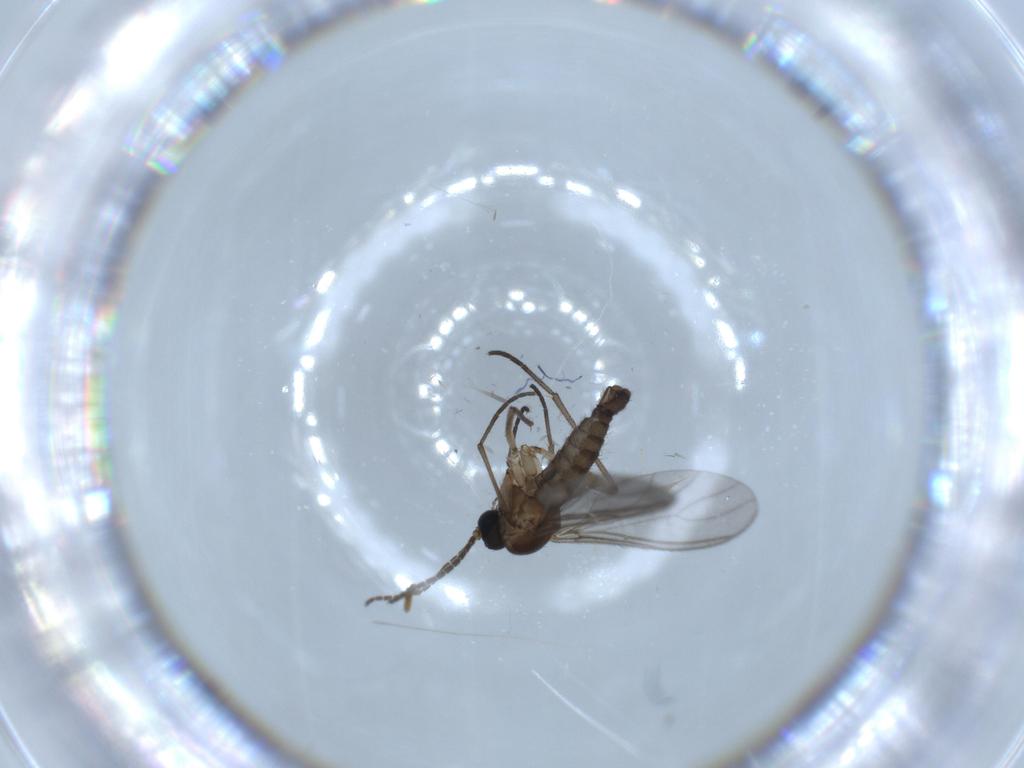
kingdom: Animalia
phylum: Arthropoda
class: Insecta
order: Diptera
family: Sciaridae
